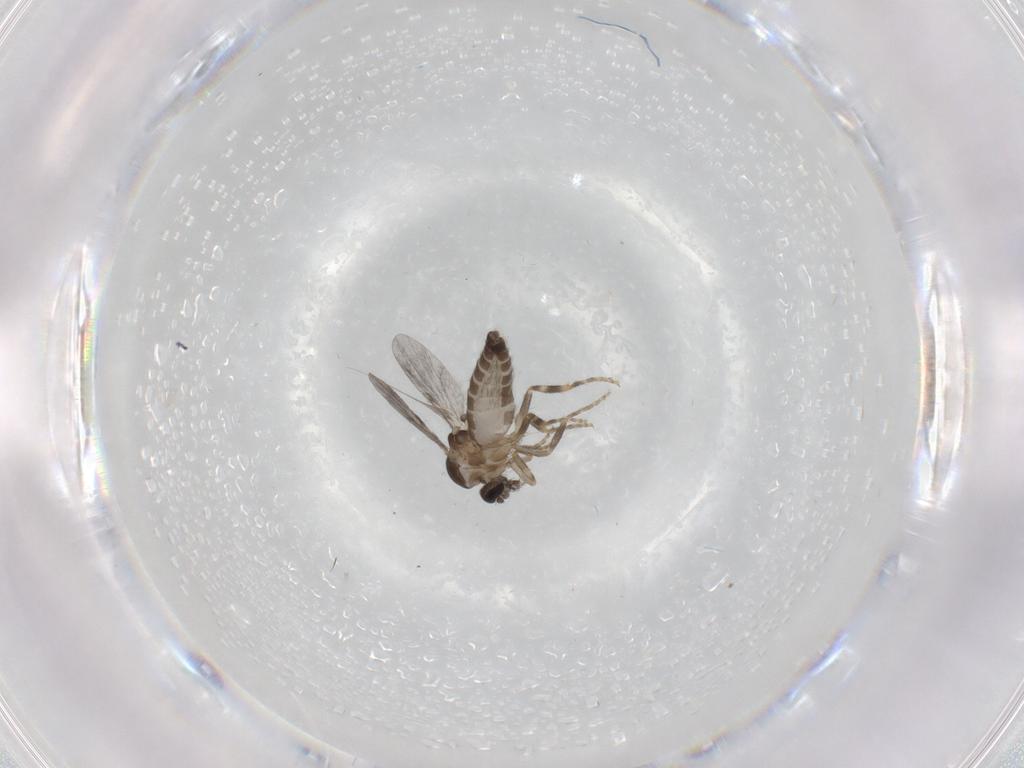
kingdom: Animalia
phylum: Arthropoda
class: Insecta
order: Diptera
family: Ceratopogonidae
